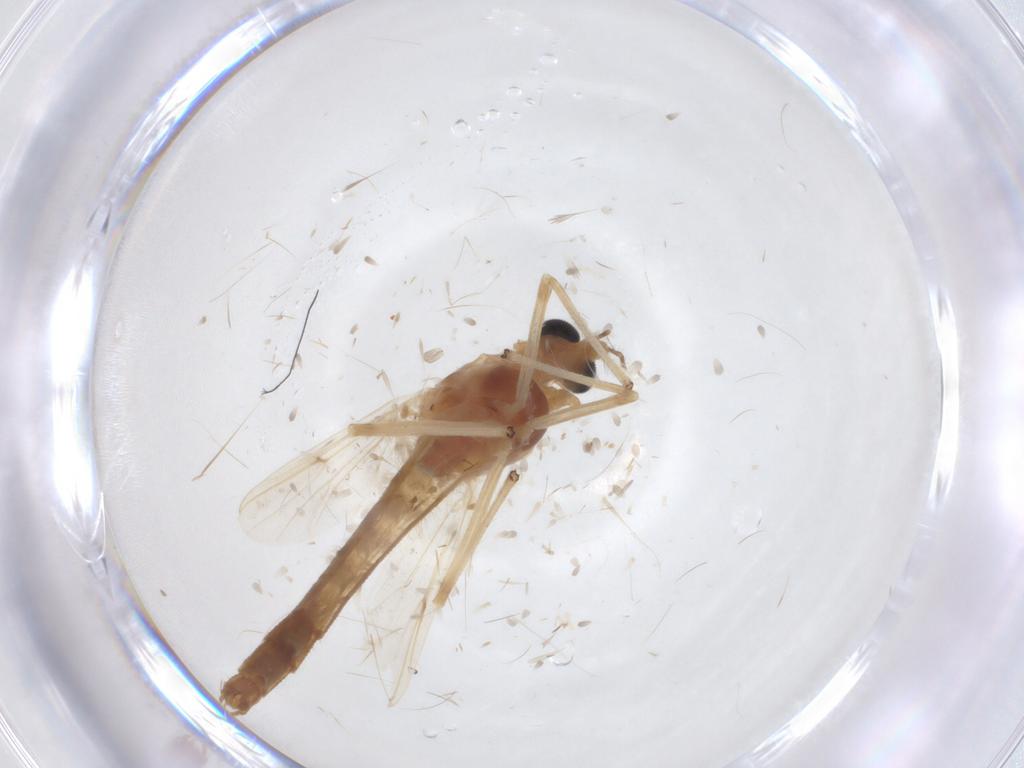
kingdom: Animalia
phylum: Arthropoda
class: Insecta
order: Diptera
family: Chironomidae
